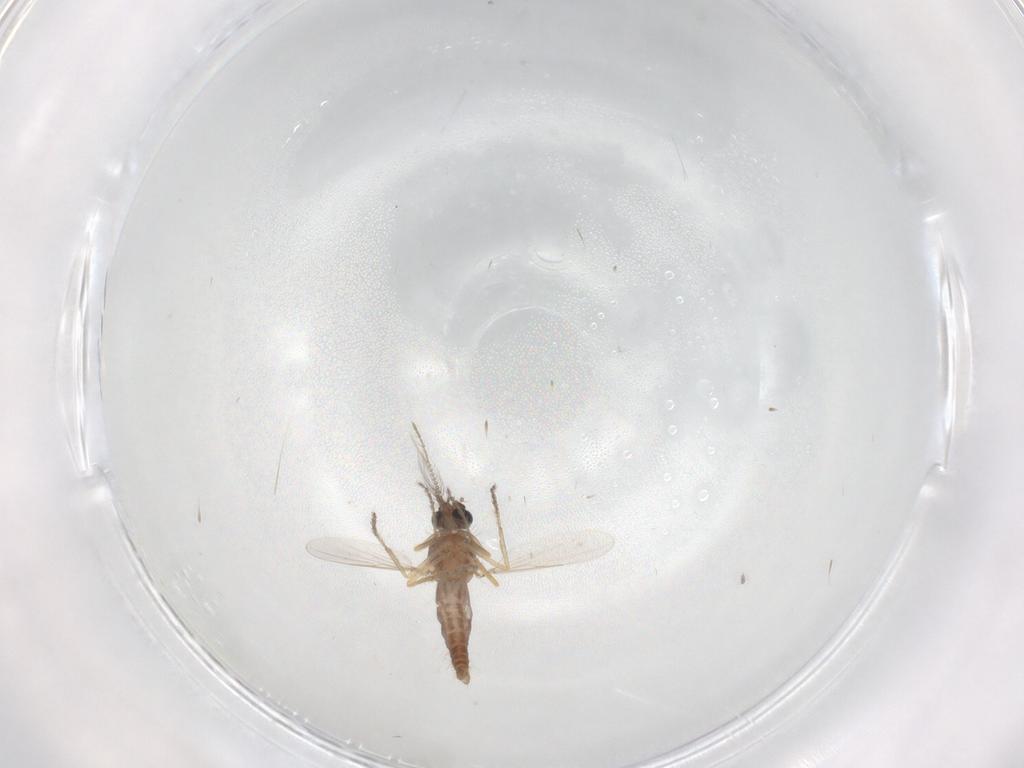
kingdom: Animalia
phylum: Arthropoda
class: Insecta
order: Diptera
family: Ceratopogonidae
